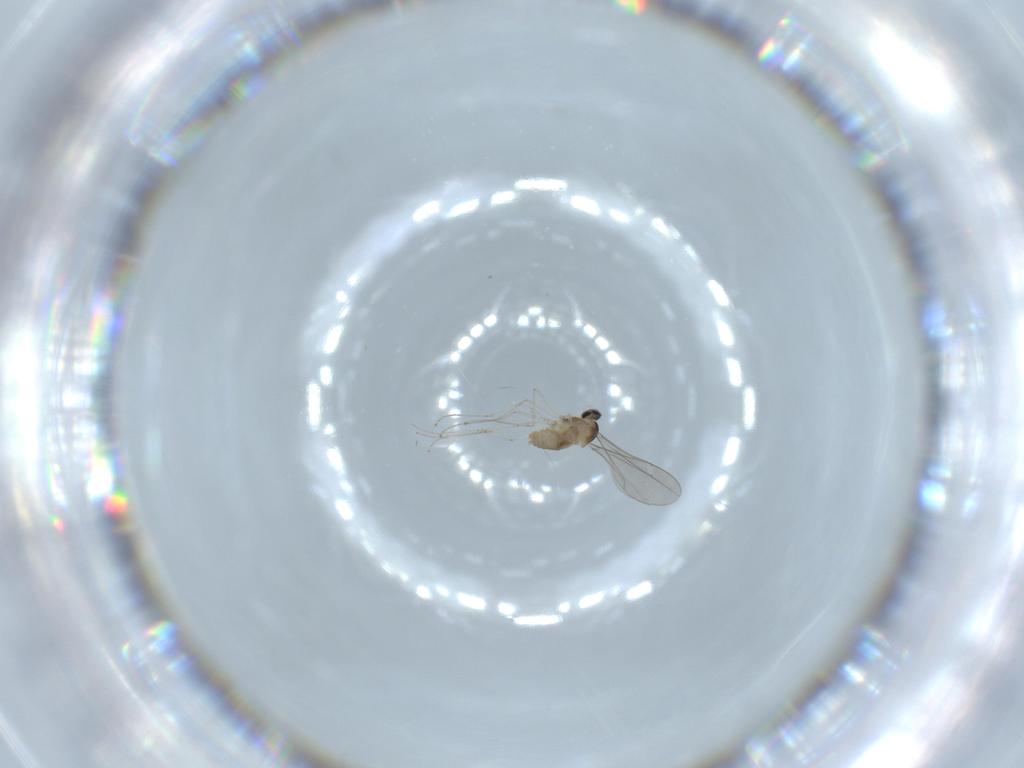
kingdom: Animalia
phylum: Arthropoda
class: Insecta
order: Diptera
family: Cecidomyiidae
